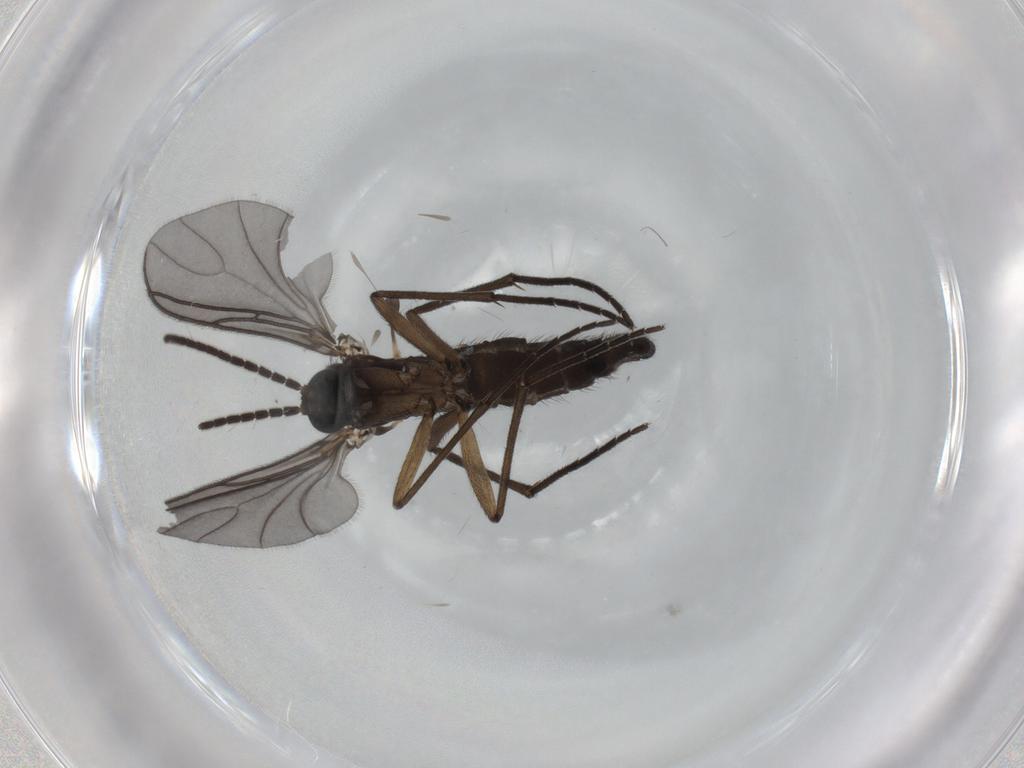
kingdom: Animalia
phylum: Arthropoda
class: Insecta
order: Diptera
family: Sciaridae
